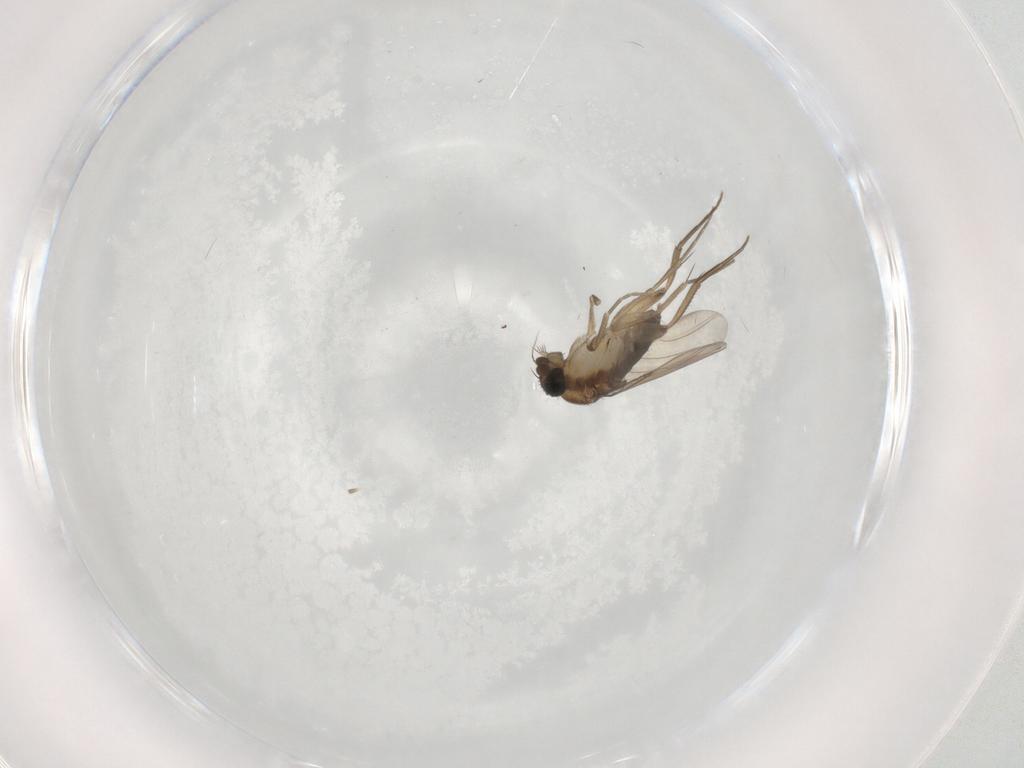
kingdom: Animalia
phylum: Arthropoda
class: Insecta
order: Diptera
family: Phoridae
